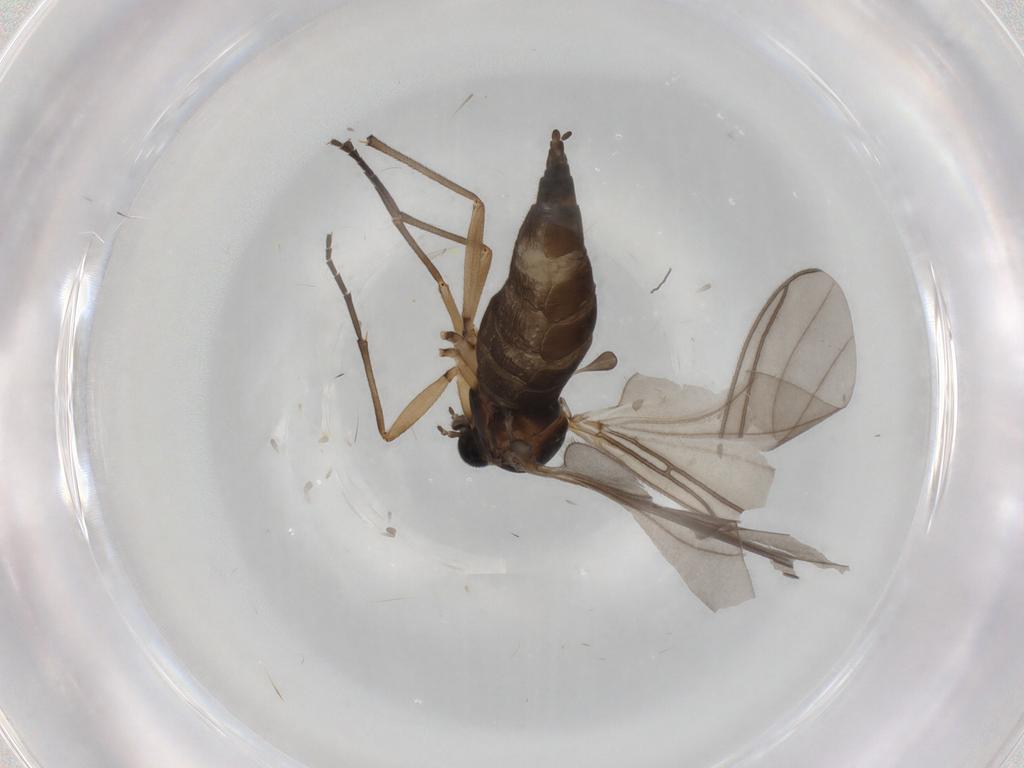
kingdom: Animalia
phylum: Arthropoda
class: Insecta
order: Diptera
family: Sciaridae
